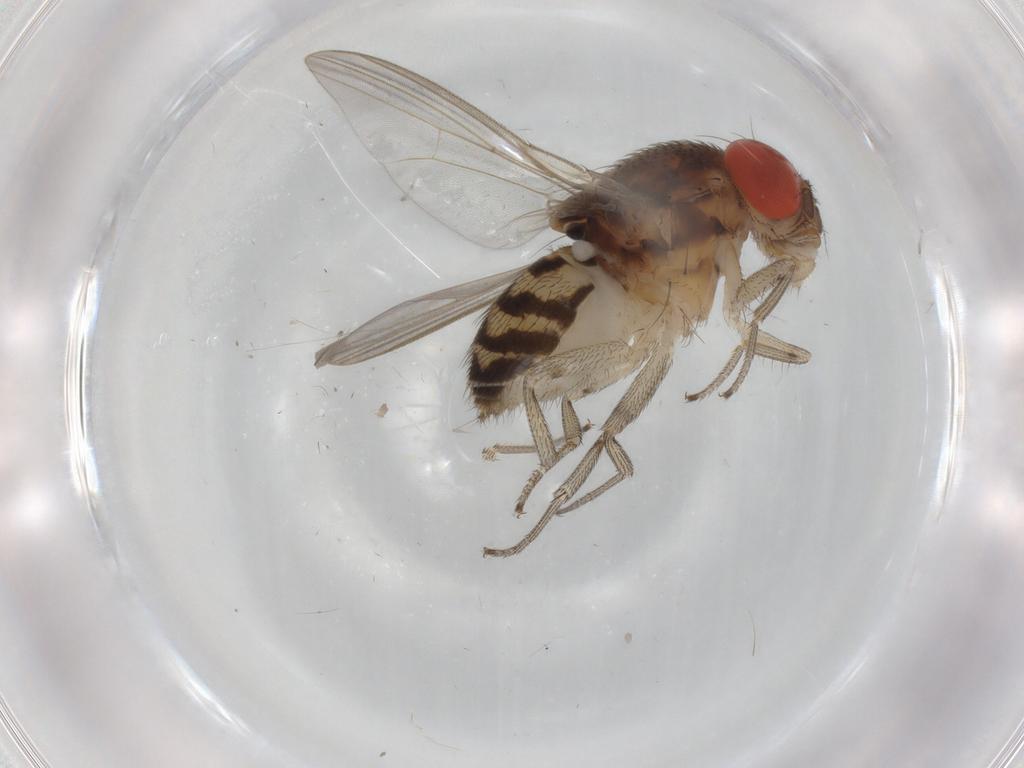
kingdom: Animalia
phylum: Arthropoda
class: Insecta
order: Diptera
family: Drosophilidae
